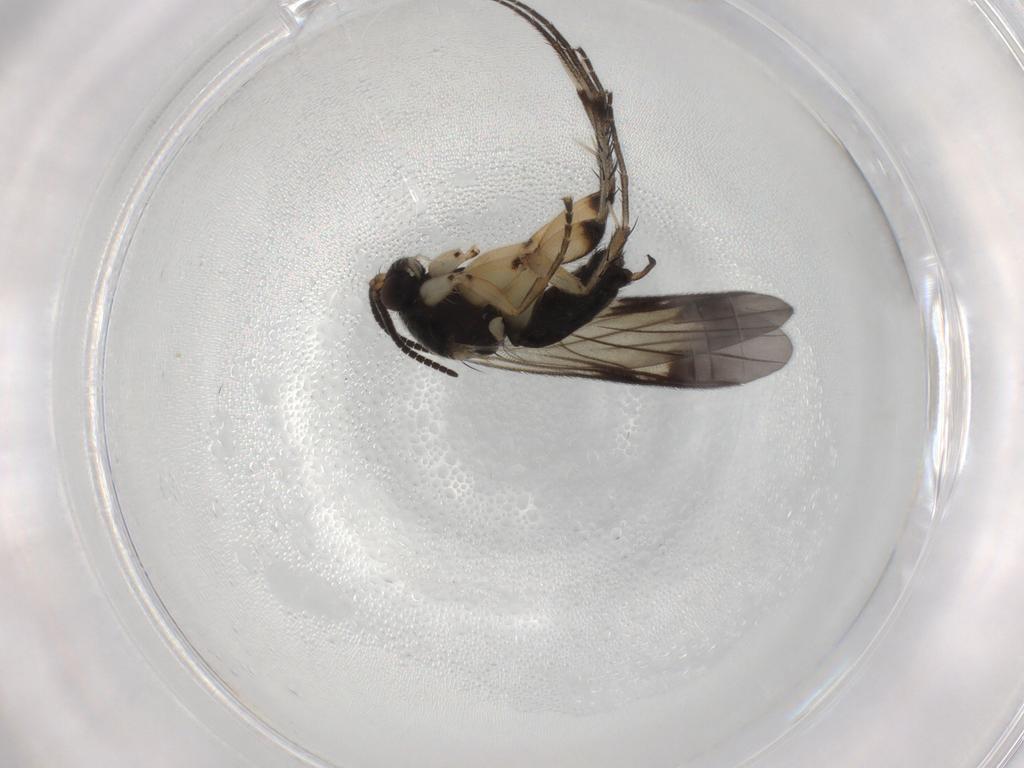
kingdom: Animalia
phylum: Arthropoda
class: Insecta
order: Diptera
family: Mycetophilidae
